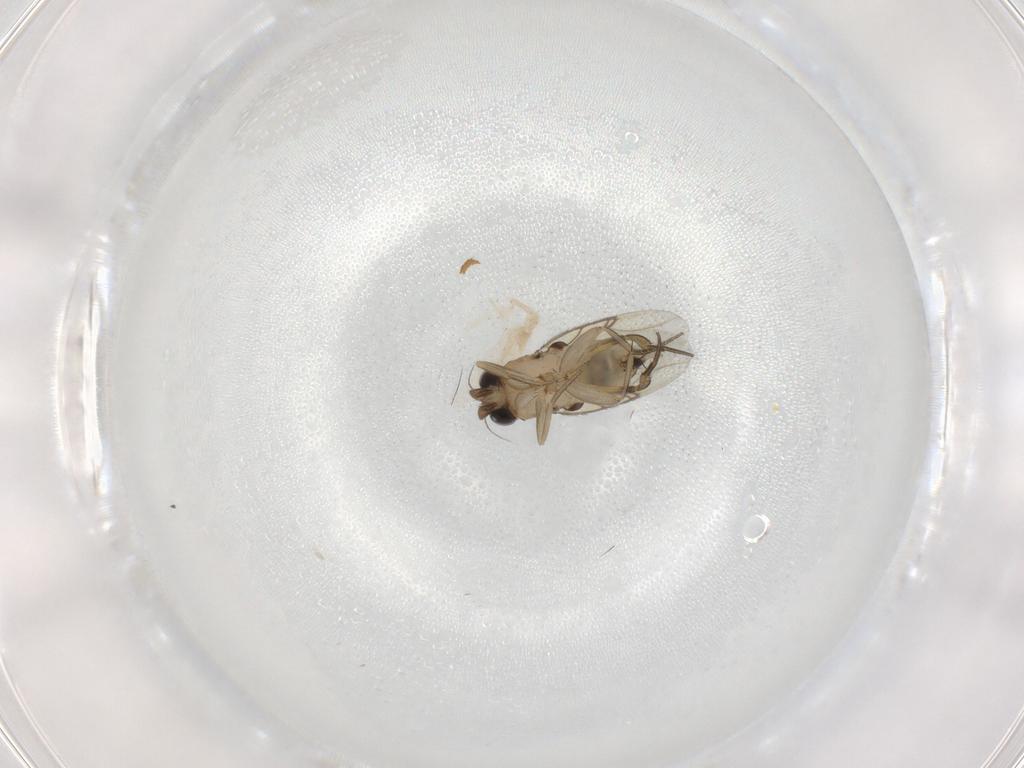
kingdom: Animalia
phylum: Arthropoda
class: Insecta
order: Diptera
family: Phoridae
